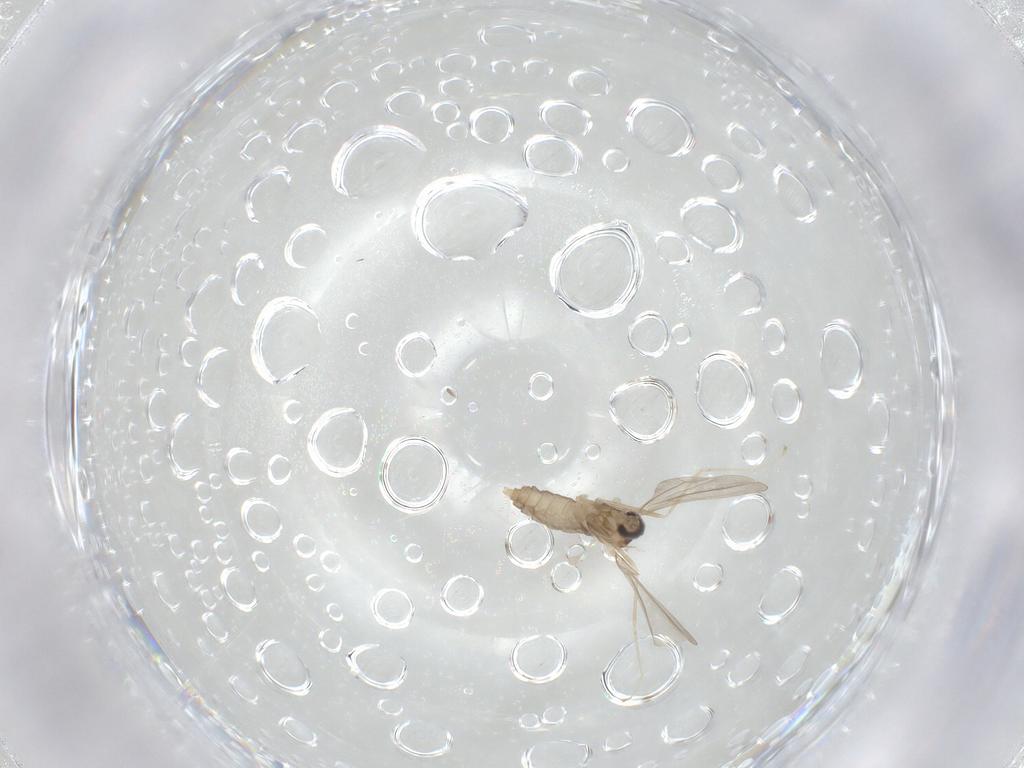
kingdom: Animalia
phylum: Arthropoda
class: Insecta
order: Diptera
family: Cecidomyiidae
